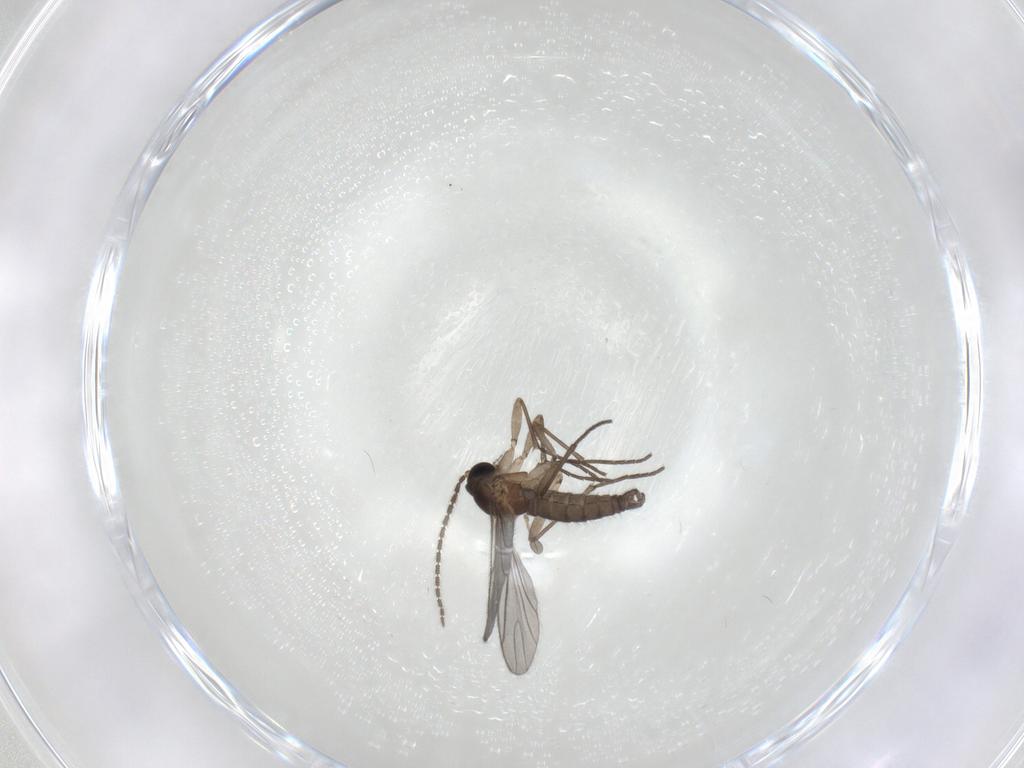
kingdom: Animalia
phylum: Arthropoda
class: Insecta
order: Diptera
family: Sciaridae
